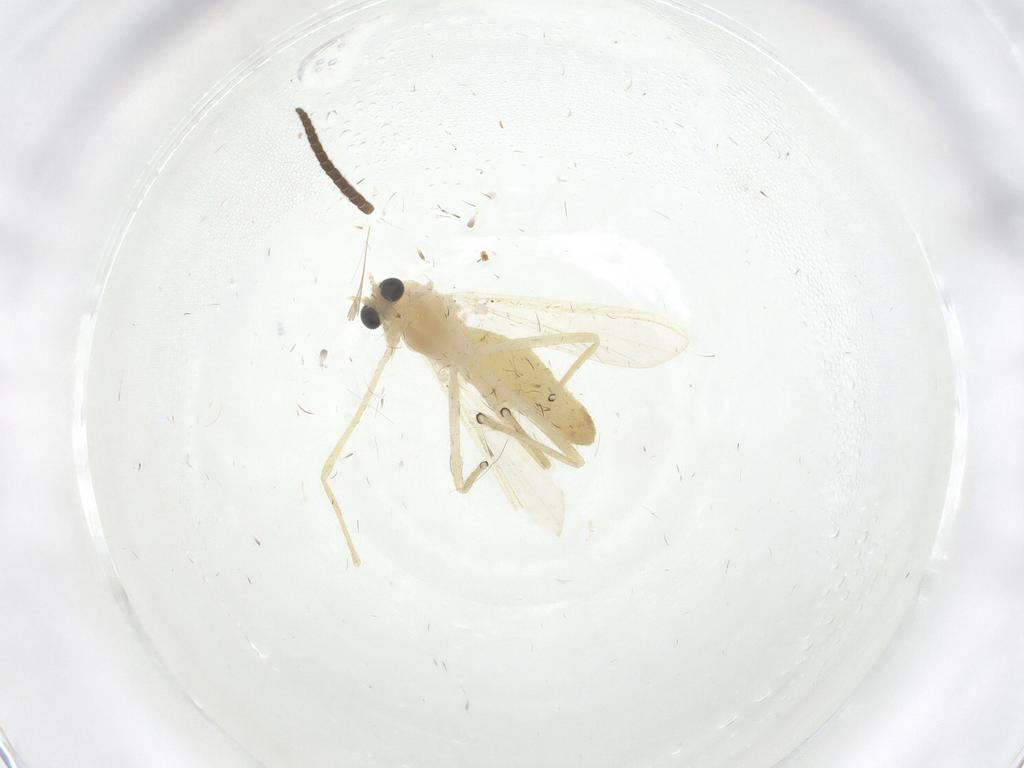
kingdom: Animalia
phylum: Arthropoda
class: Insecta
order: Diptera
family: Chironomidae
